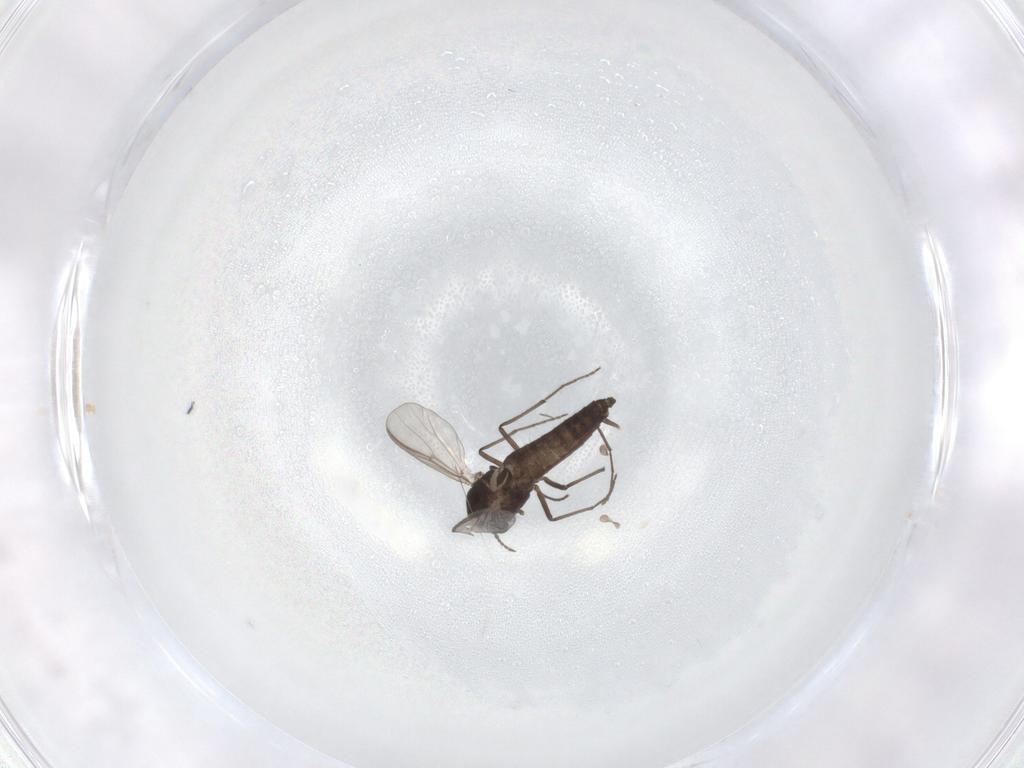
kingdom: Animalia
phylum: Arthropoda
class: Insecta
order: Diptera
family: Chironomidae
